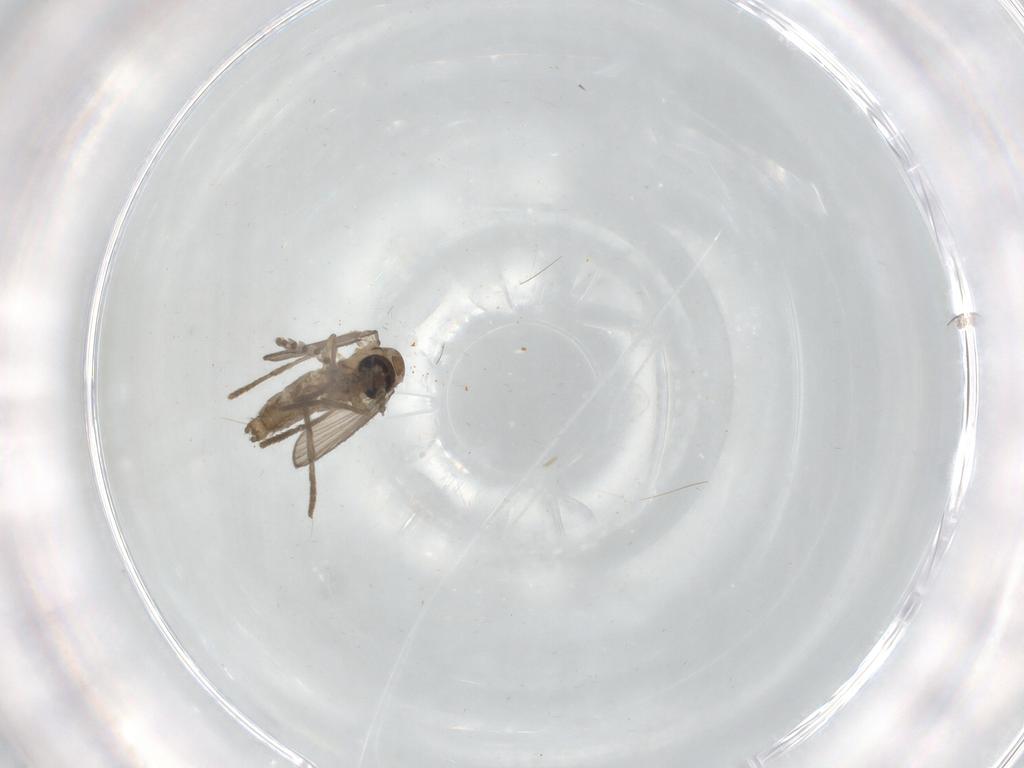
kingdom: Animalia
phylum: Arthropoda
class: Insecta
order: Diptera
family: Psychodidae
